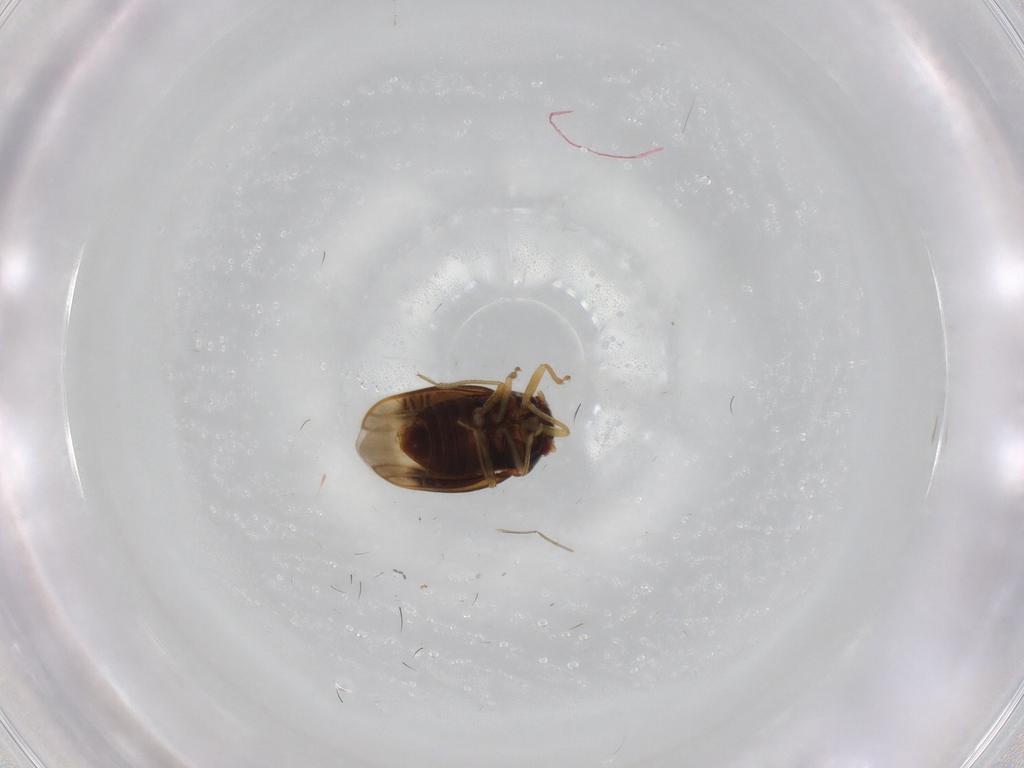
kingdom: Animalia
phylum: Arthropoda
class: Insecta
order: Hemiptera
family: Schizopteridae
